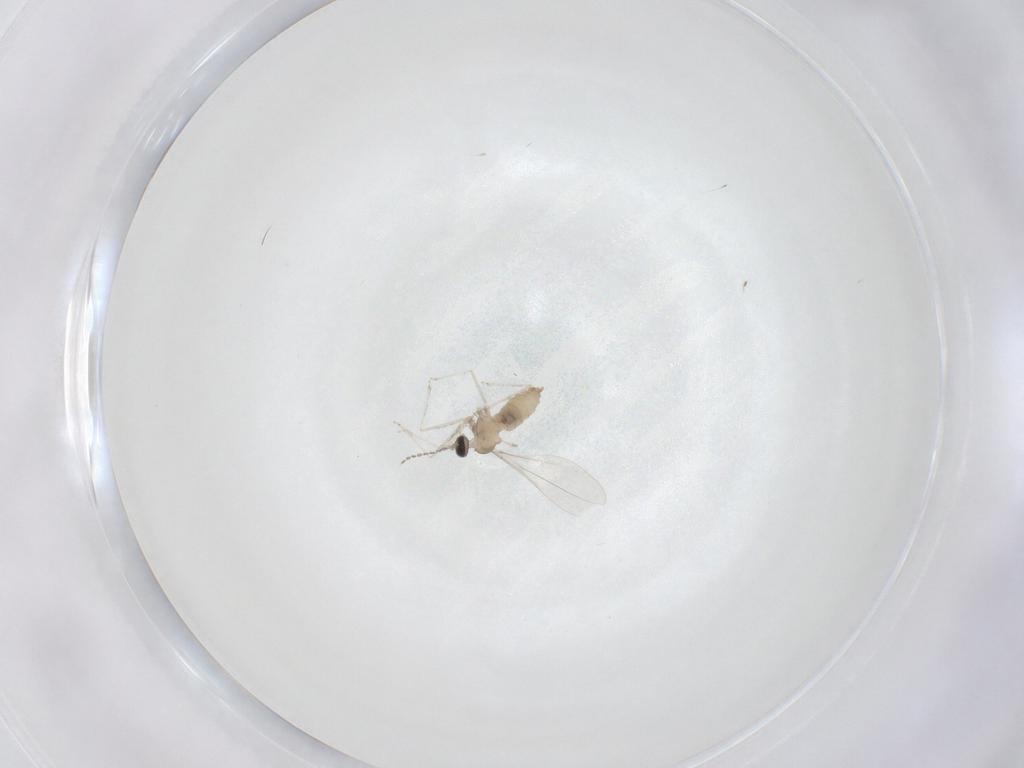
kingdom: Animalia
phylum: Arthropoda
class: Insecta
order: Diptera
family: Cecidomyiidae
